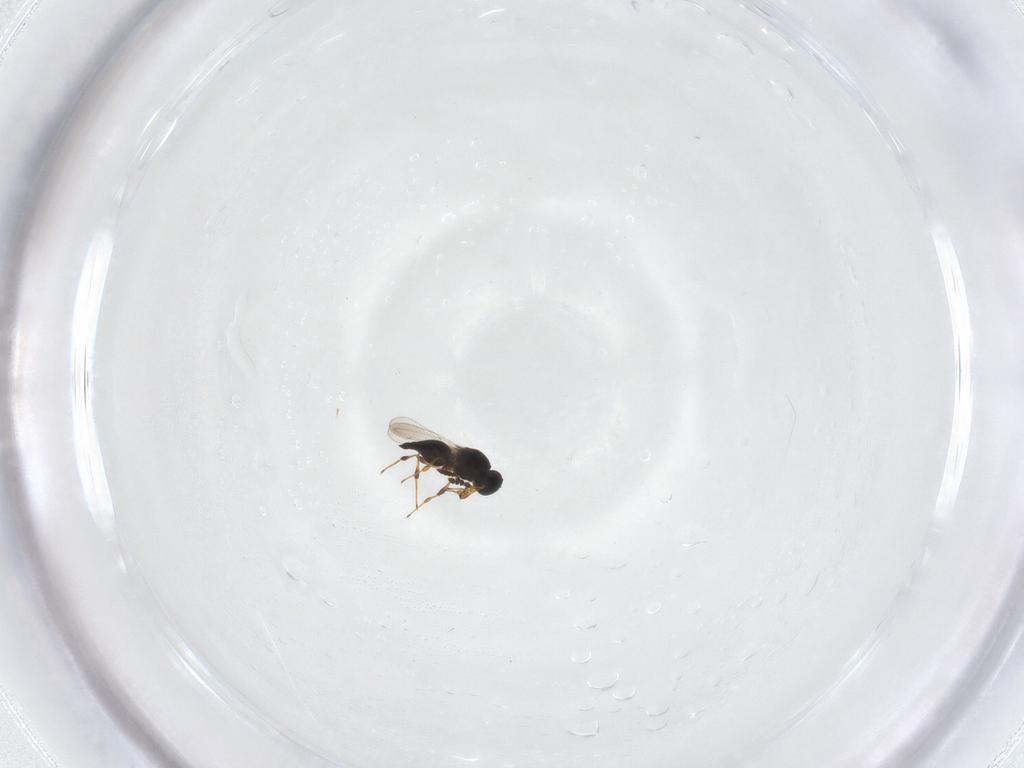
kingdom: Animalia
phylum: Arthropoda
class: Insecta
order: Hymenoptera
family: Platygastridae
